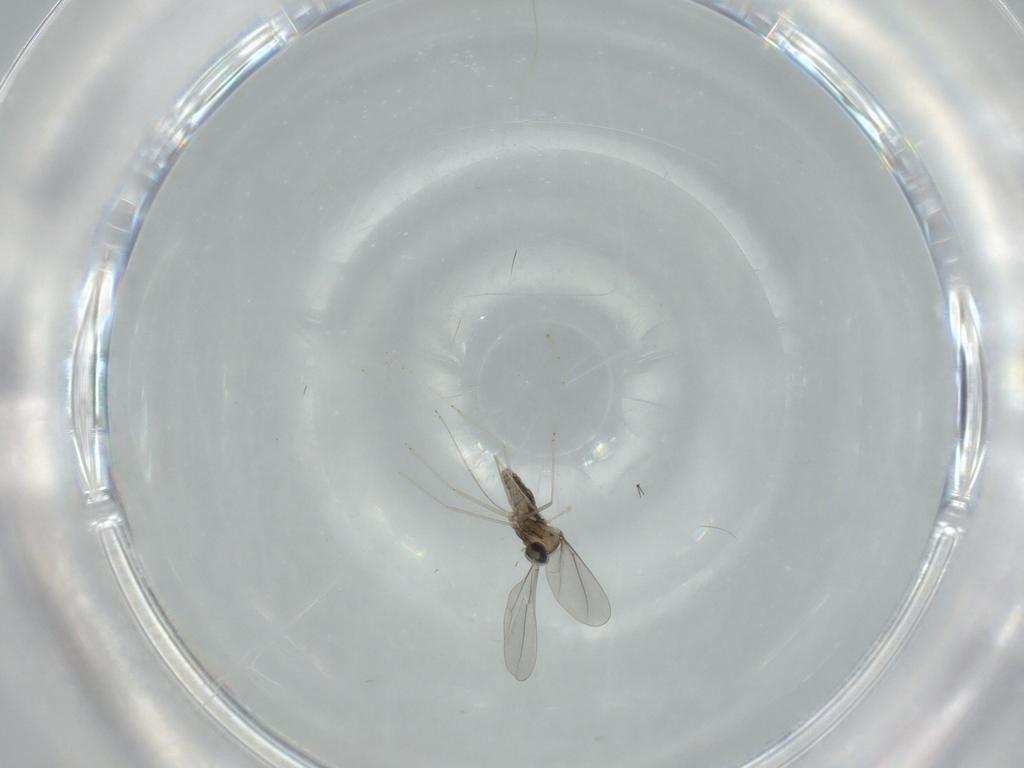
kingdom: Animalia
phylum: Arthropoda
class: Insecta
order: Diptera
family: Cecidomyiidae
